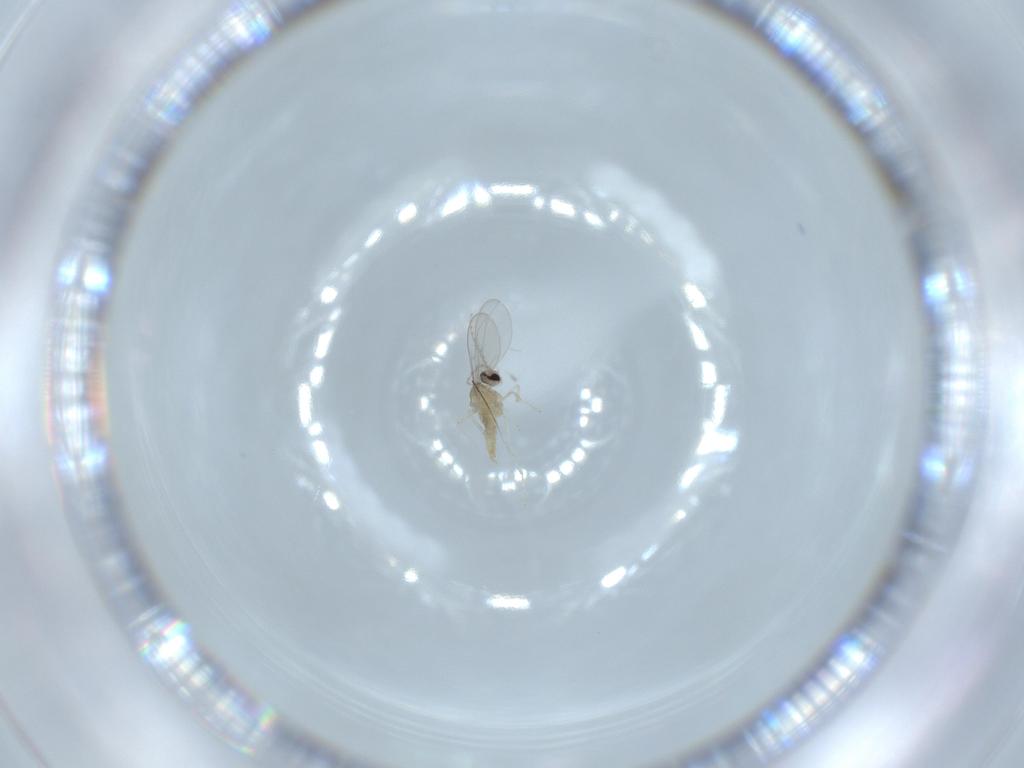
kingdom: Animalia
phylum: Arthropoda
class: Insecta
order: Diptera
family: Cecidomyiidae
